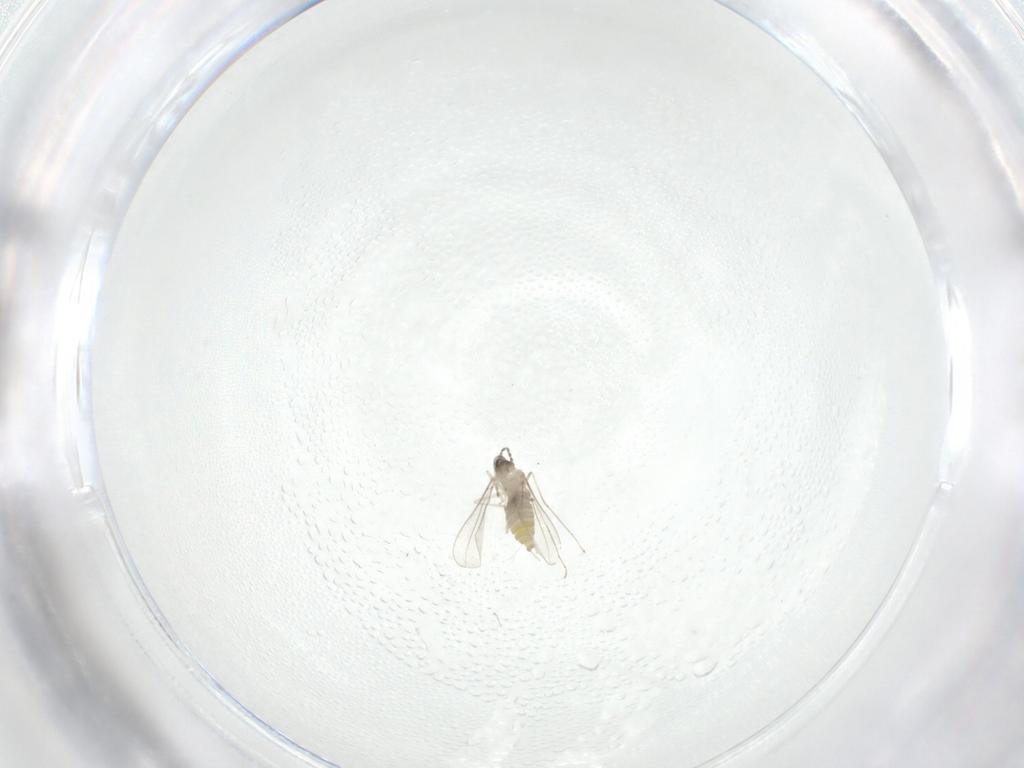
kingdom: Animalia
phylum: Arthropoda
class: Insecta
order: Diptera
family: Cecidomyiidae
